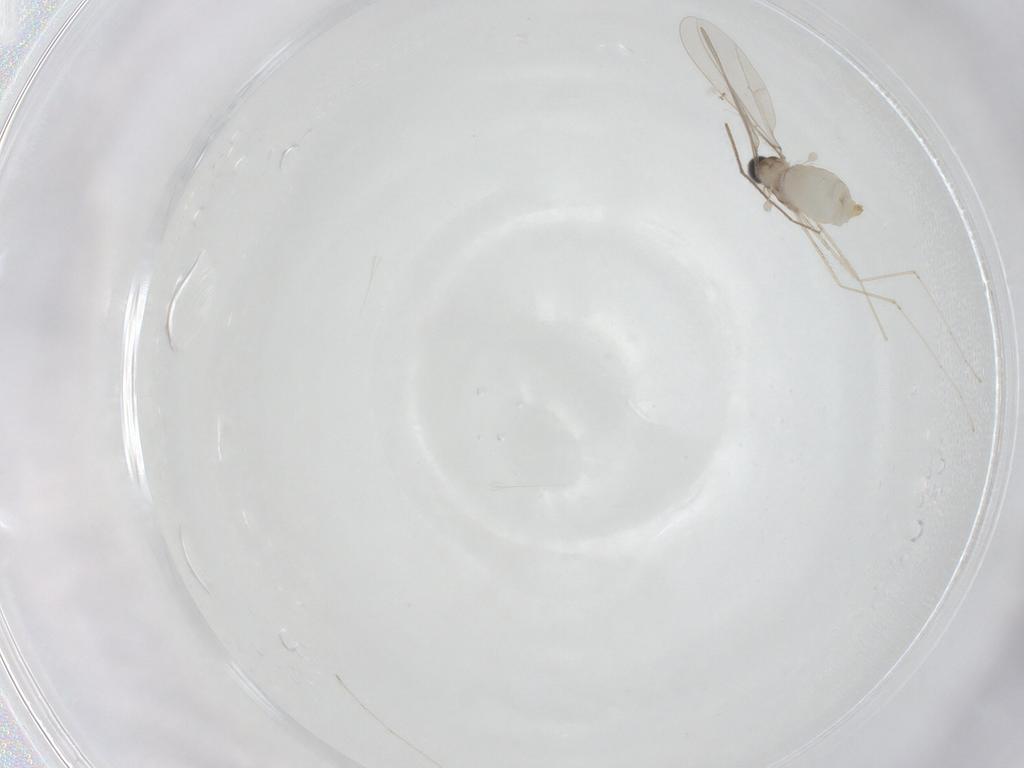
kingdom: Animalia
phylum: Arthropoda
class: Insecta
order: Diptera
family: Cecidomyiidae
